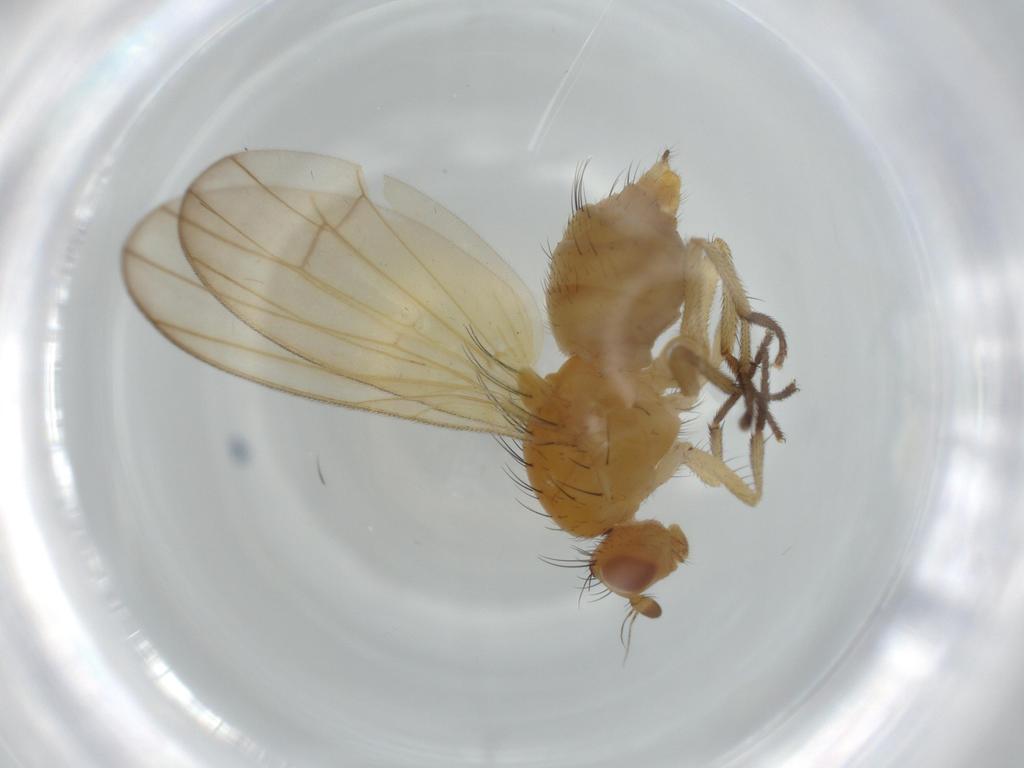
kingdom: Animalia
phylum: Arthropoda
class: Insecta
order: Diptera
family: Lauxaniidae
